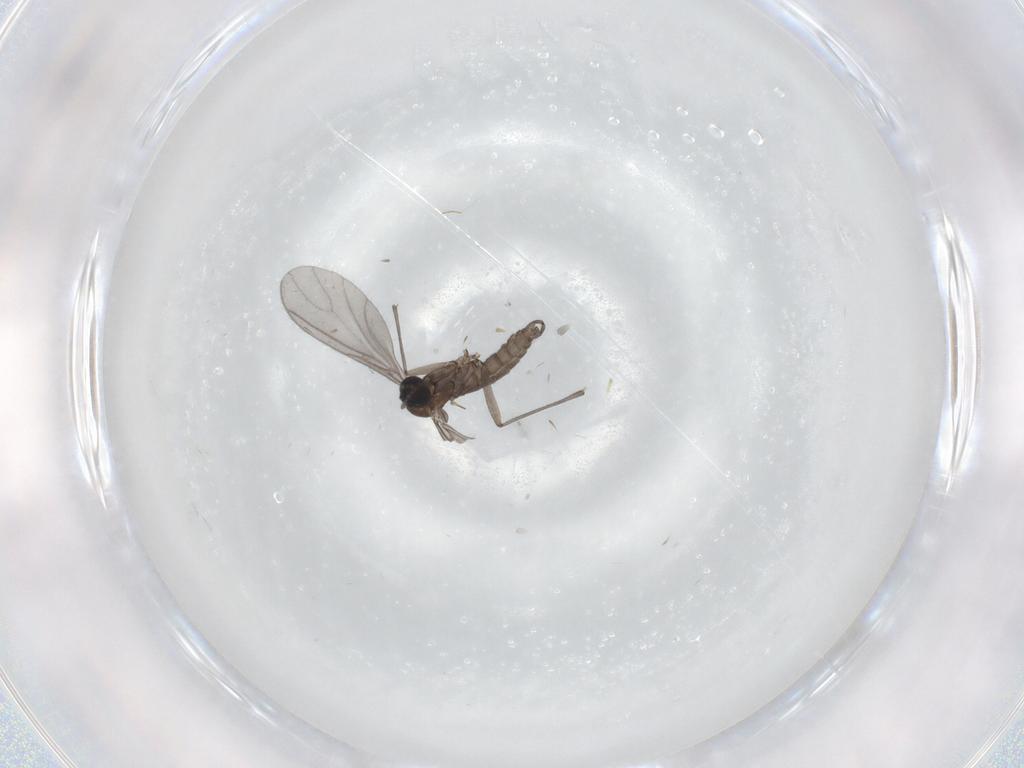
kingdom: Animalia
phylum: Arthropoda
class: Insecta
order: Diptera
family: Sciaridae
